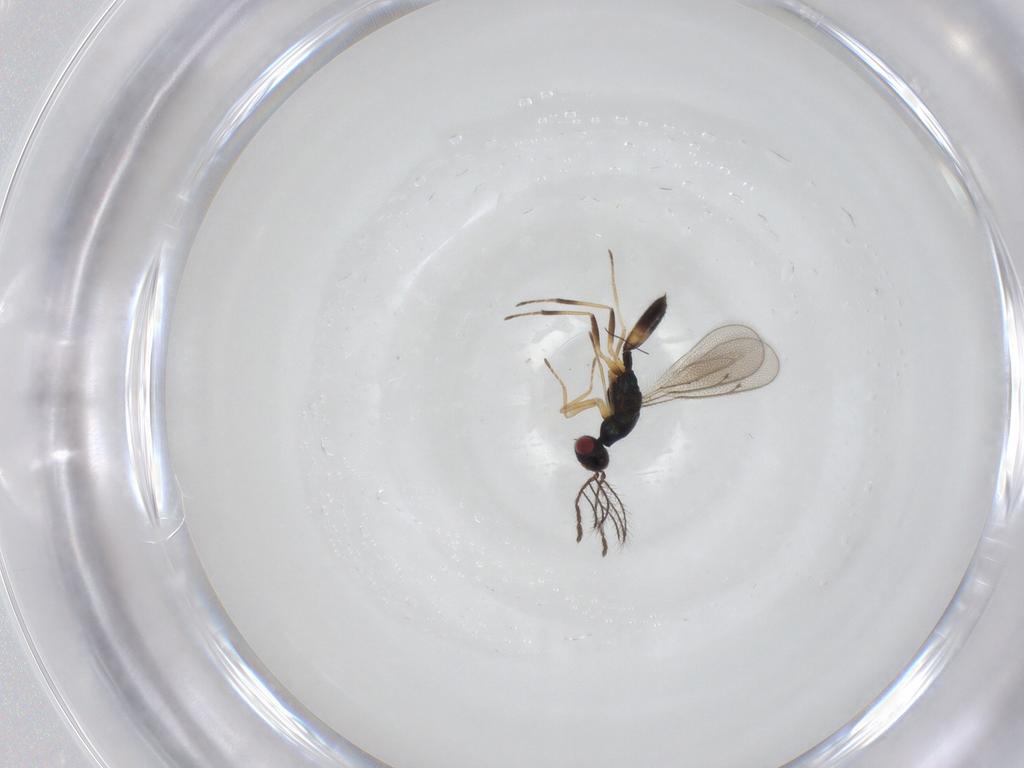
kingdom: Animalia
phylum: Arthropoda
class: Insecta
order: Hymenoptera
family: Eulophidae
